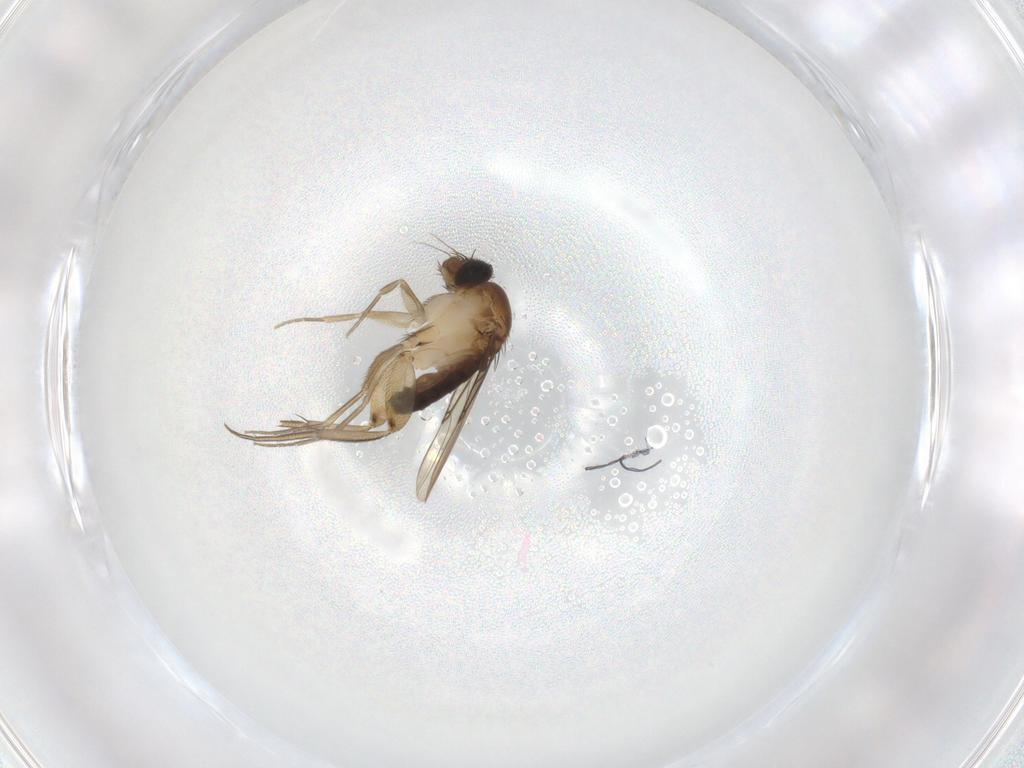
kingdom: Animalia
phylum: Arthropoda
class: Insecta
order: Diptera
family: Phoridae
